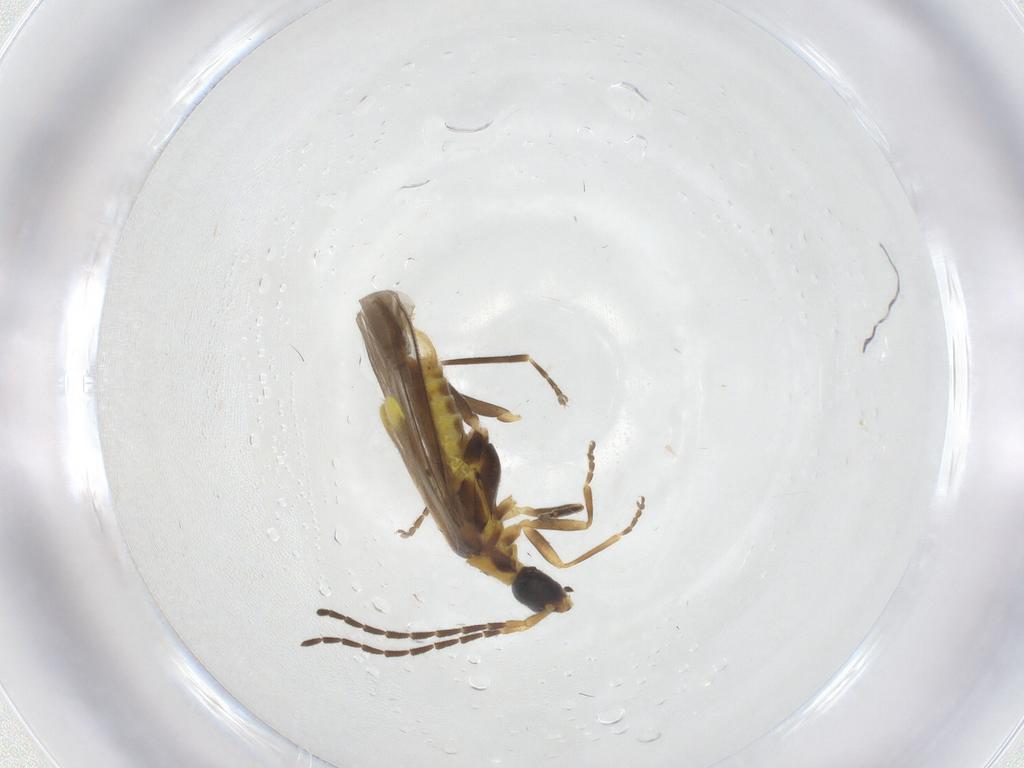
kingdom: Animalia
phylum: Arthropoda
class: Insecta
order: Coleoptera
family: Cantharidae
